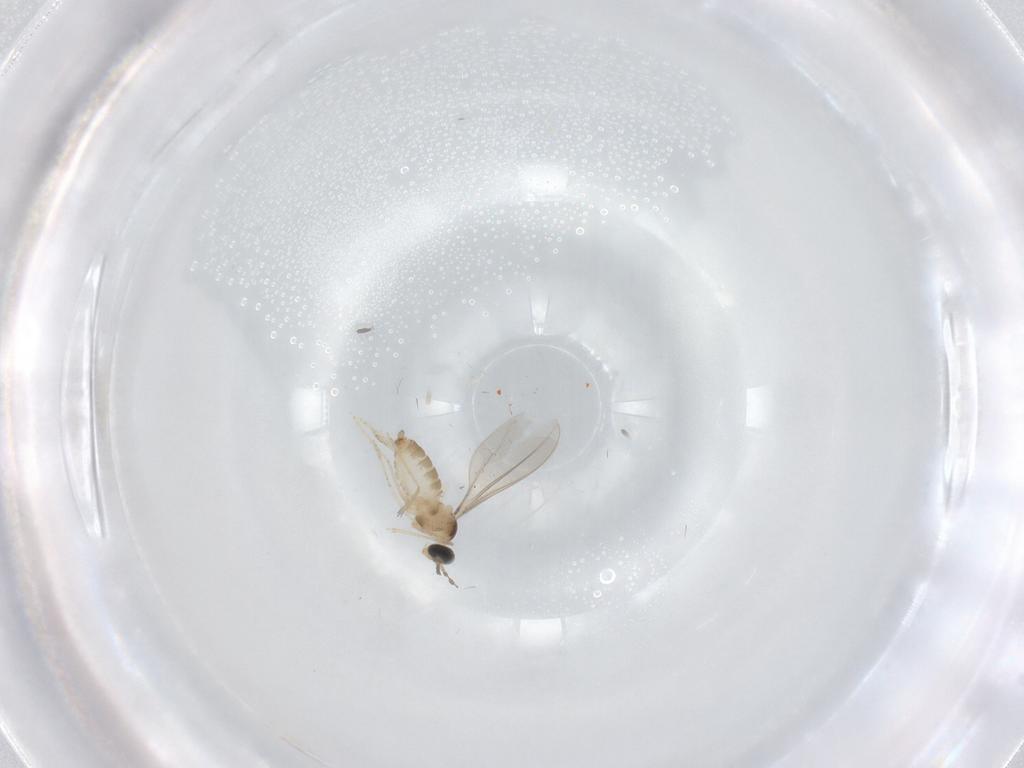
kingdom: Animalia
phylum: Arthropoda
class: Insecta
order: Diptera
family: Cecidomyiidae
